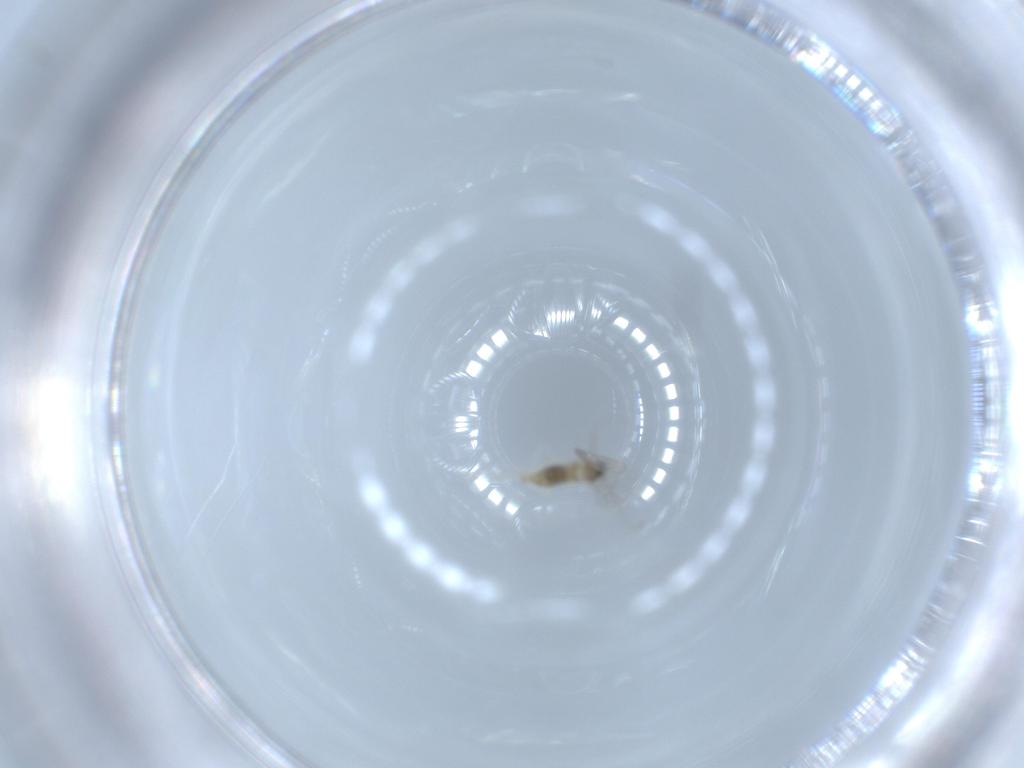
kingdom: Animalia
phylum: Arthropoda
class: Insecta
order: Diptera
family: Cecidomyiidae
